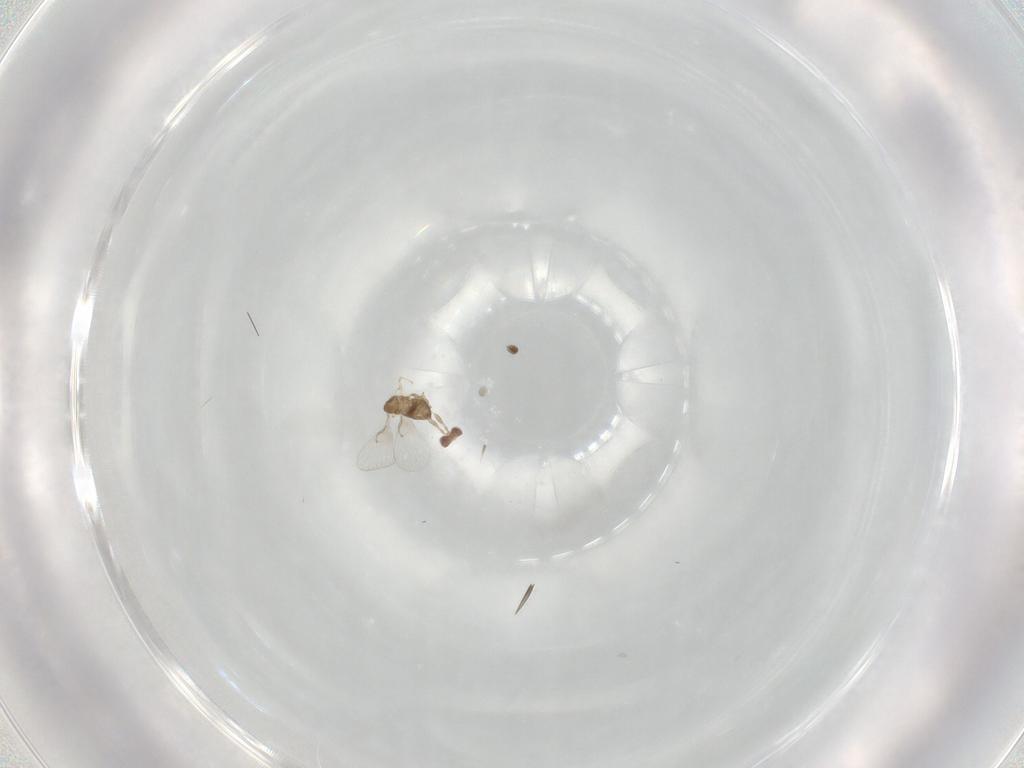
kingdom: Animalia
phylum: Arthropoda
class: Insecta
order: Hymenoptera
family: Trichogrammatidae
